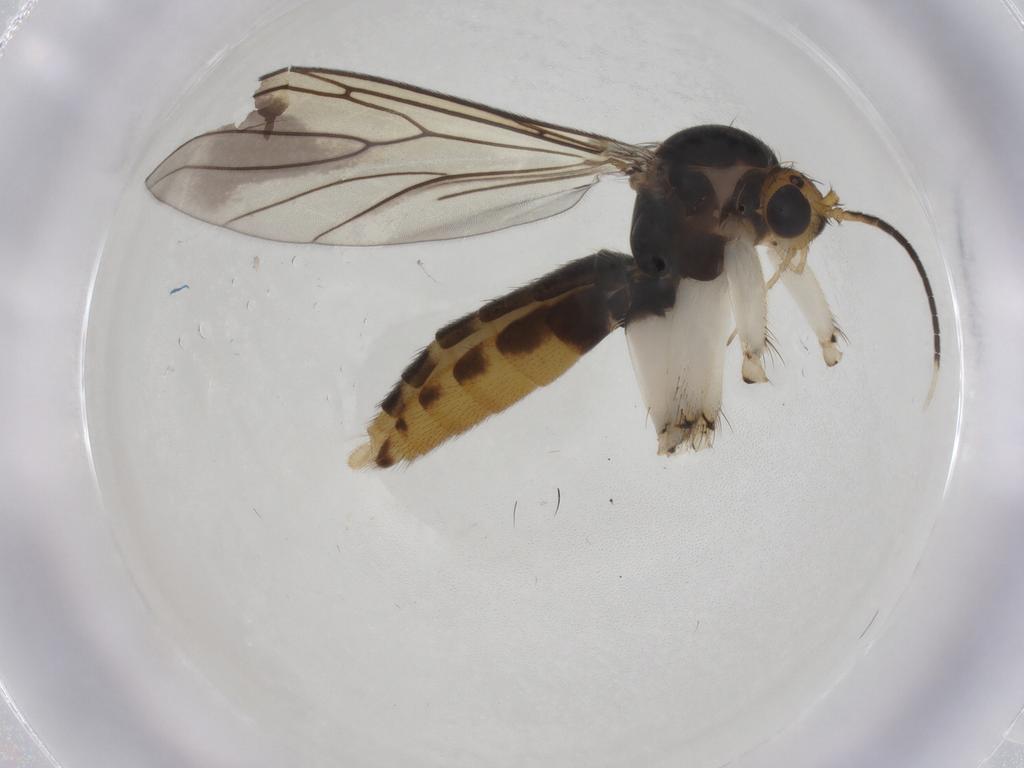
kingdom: Animalia
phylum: Arthropoda
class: Insecta
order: Diptera
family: Mycetophilidae
